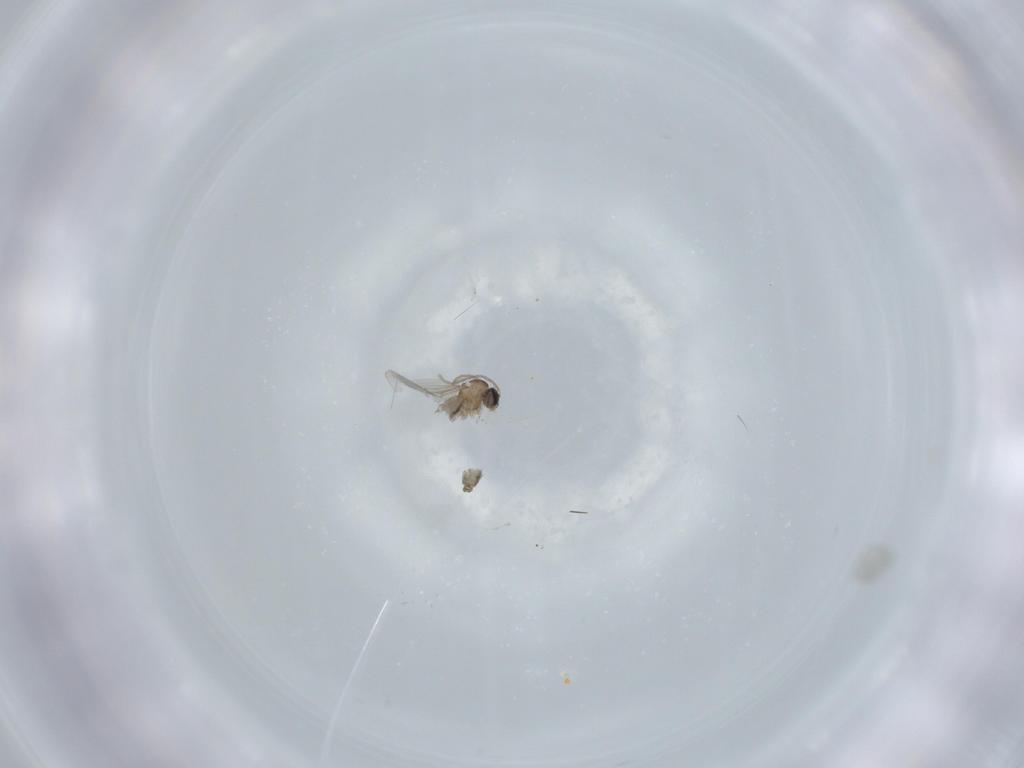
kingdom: Animalia
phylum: Arthropoda
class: Insecta
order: Diptera
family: Cecidomyiidae
